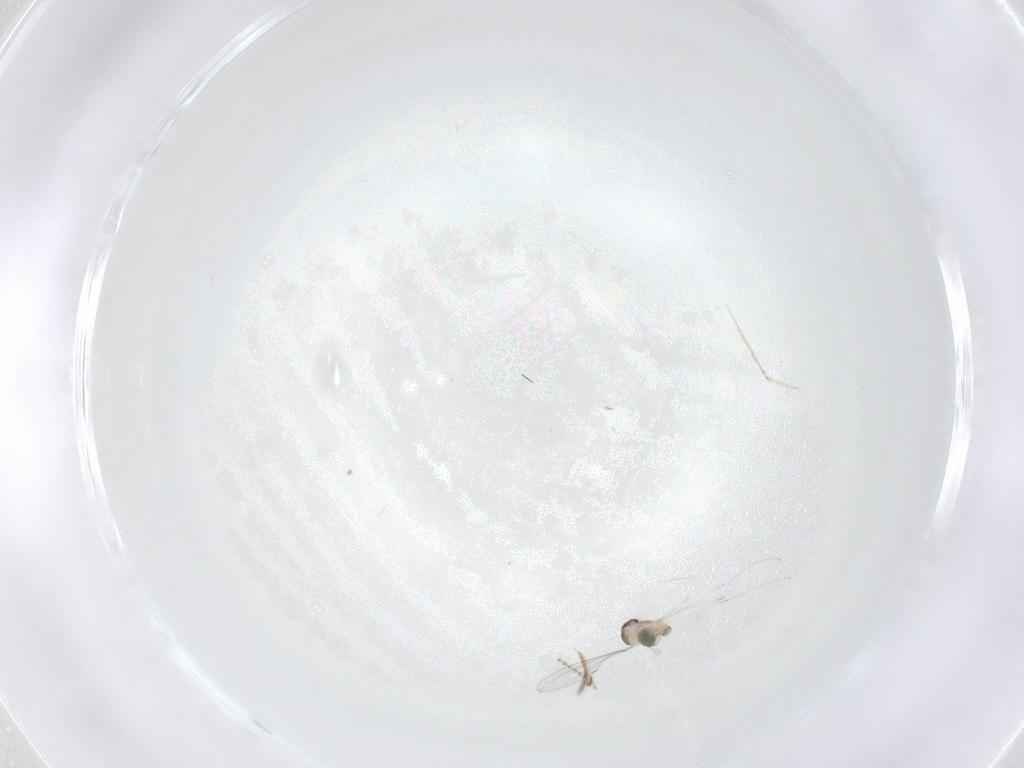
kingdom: Animalia
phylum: Arthropoda
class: Insecta
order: Diptera
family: Cecidomyiidae
